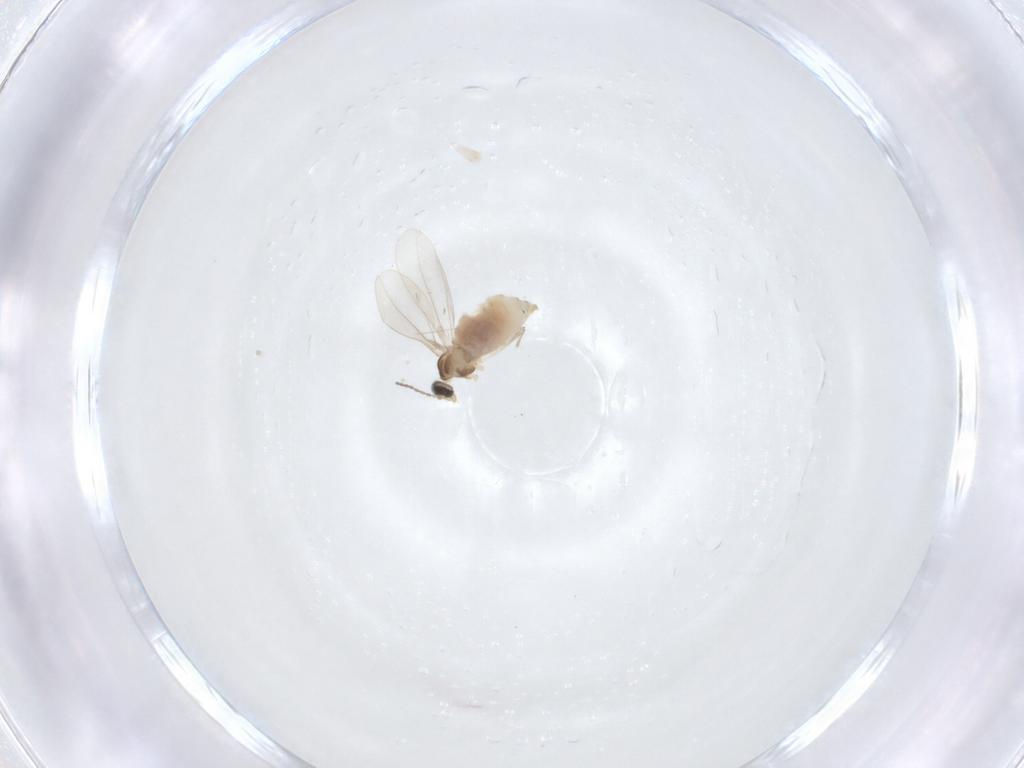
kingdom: Animalia
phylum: Arthropoda
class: Insecta
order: Diptera
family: Cecidomyiidae
